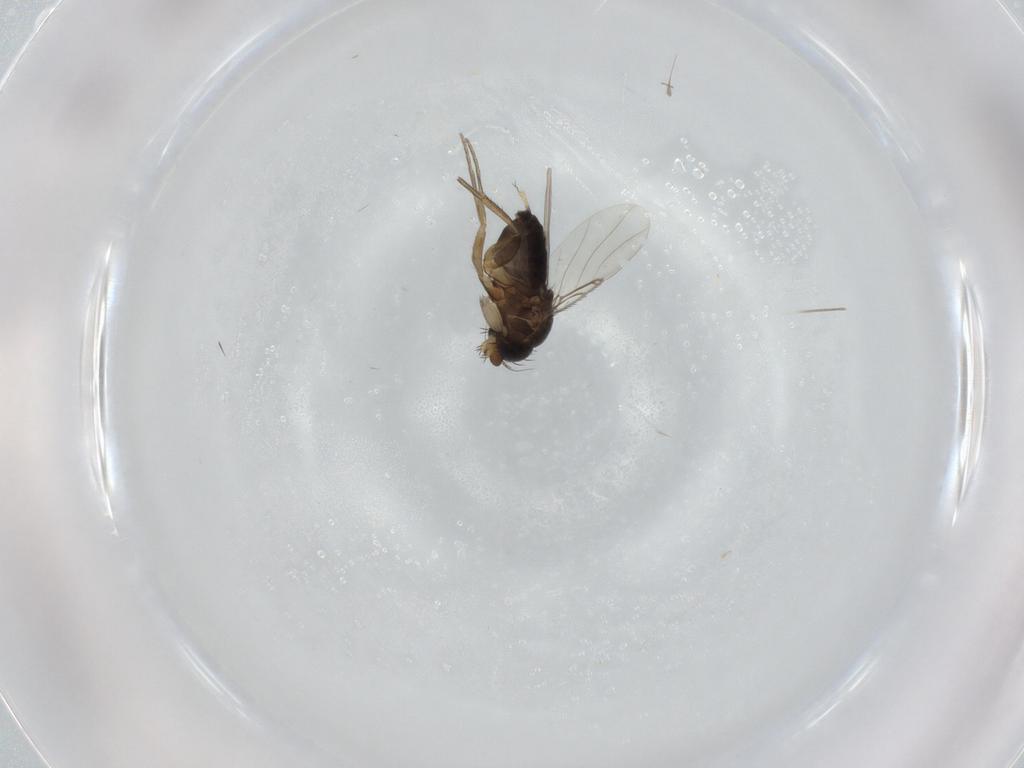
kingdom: Animalia
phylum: Arthropoda
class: Insecta
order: Diptera
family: Phoridae
